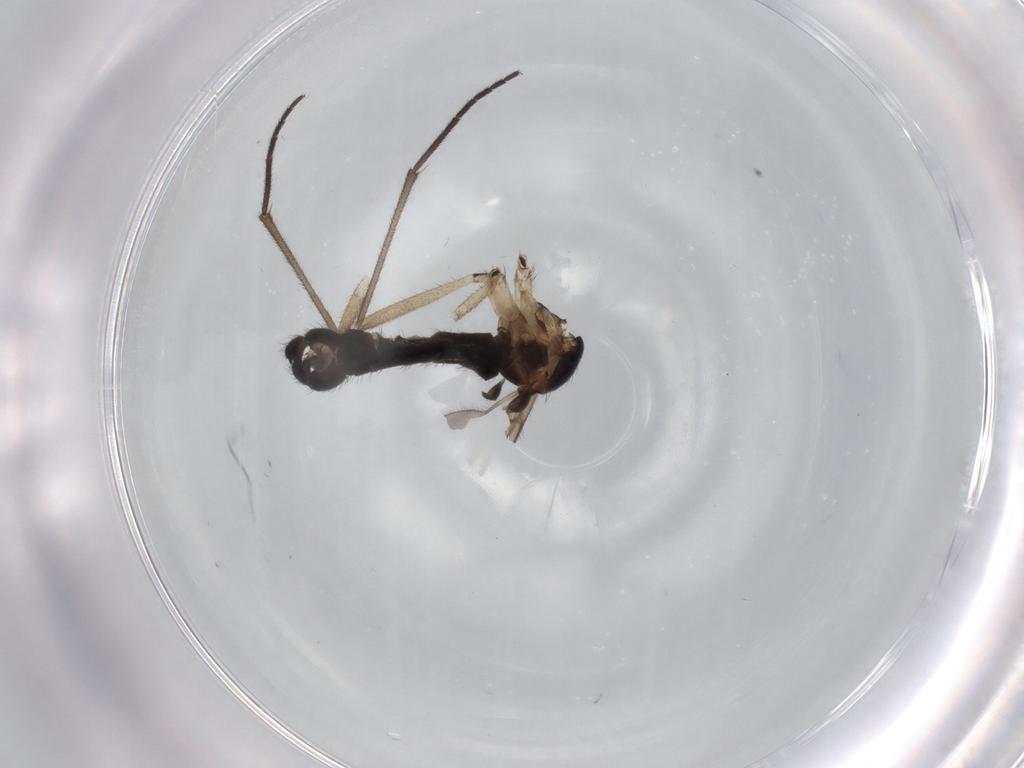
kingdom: Animalia
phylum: Arthropoda
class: Insecta
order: Diptera
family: Sciaridae
